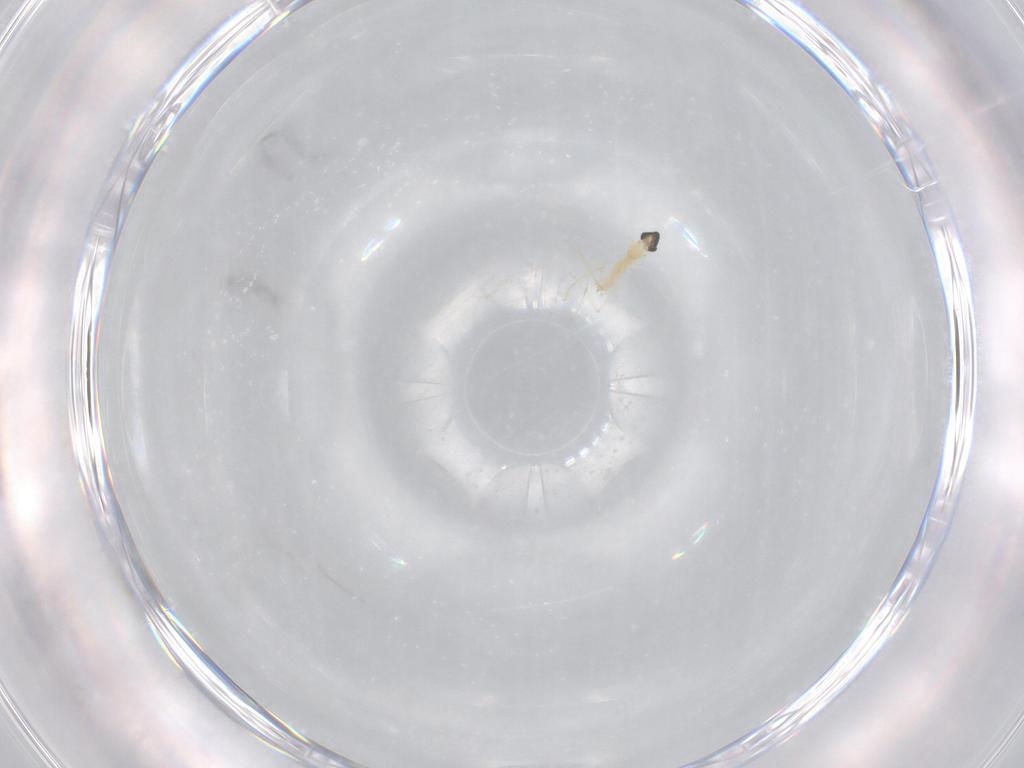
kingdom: Animalia
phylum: Arthropoda
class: Insecta
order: Diptera
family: Cecidomyiidae
